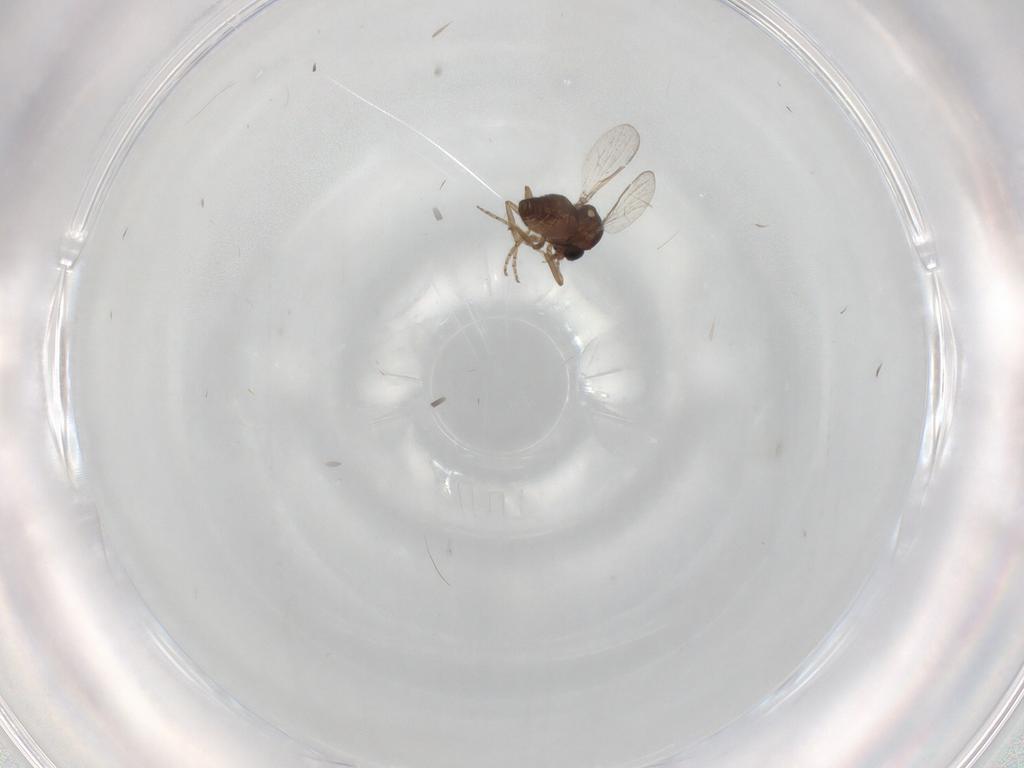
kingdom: Animalia
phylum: Arthropoda
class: Insecta
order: Diptera
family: Ceratopogonidae
